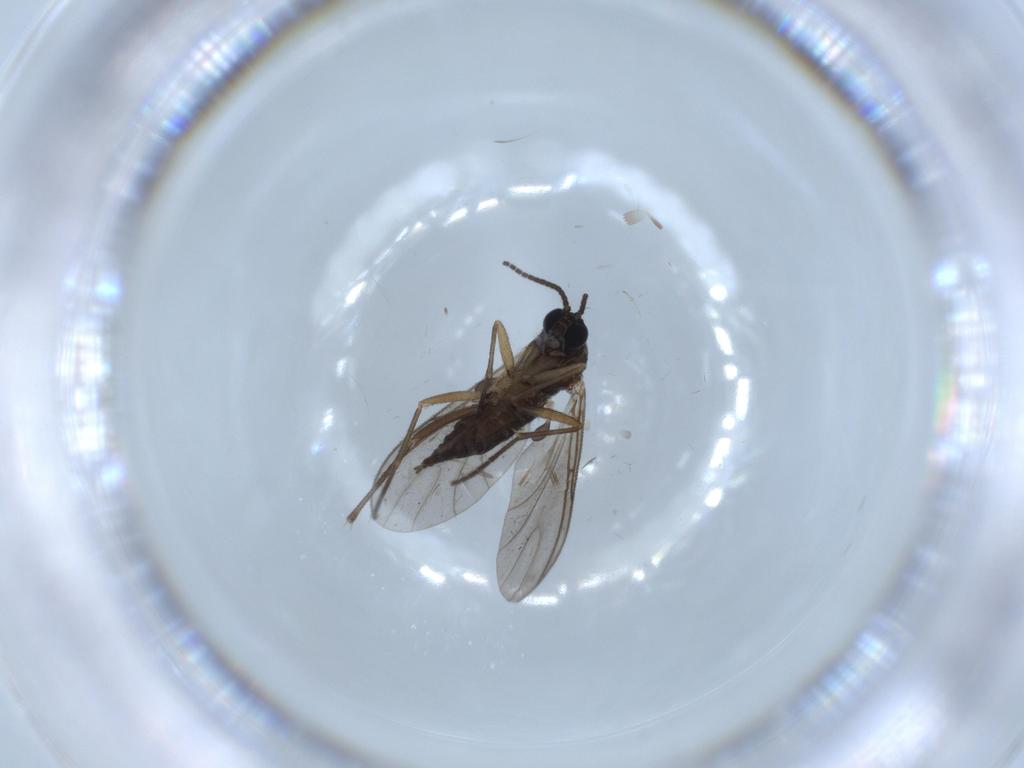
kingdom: Animalia
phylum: Arthropoda
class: Insecta
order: Diptera
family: Sciaridae
